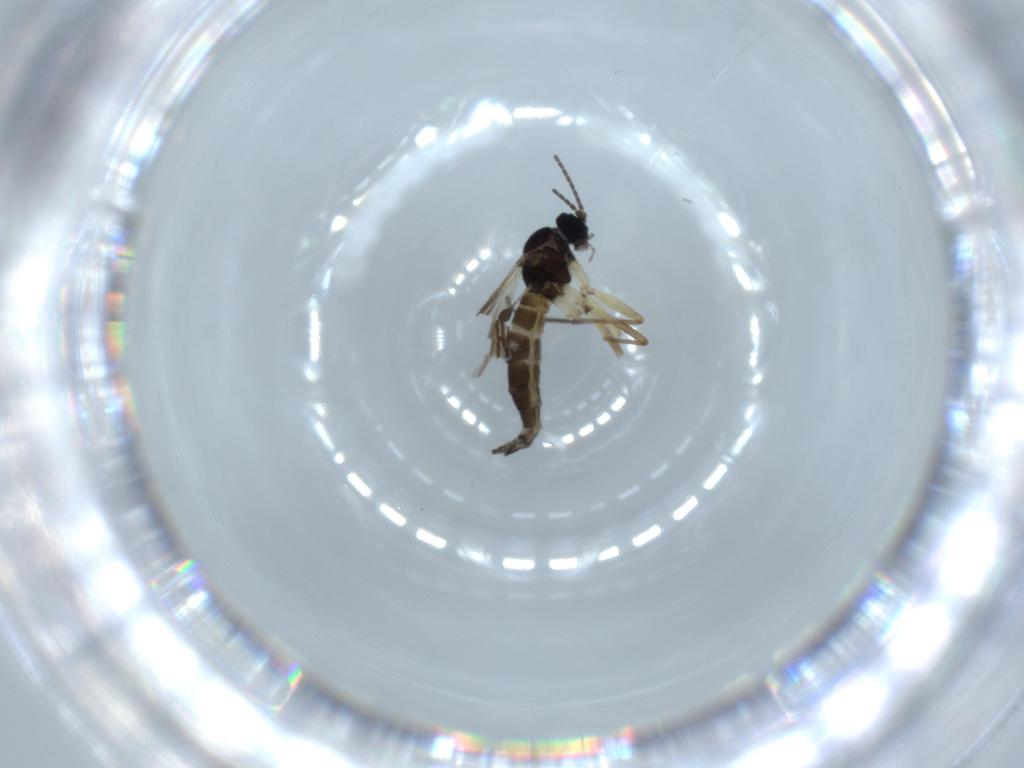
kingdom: Animalia
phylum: Arthropoda
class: Insecta
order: Diptera
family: Sciaridae
